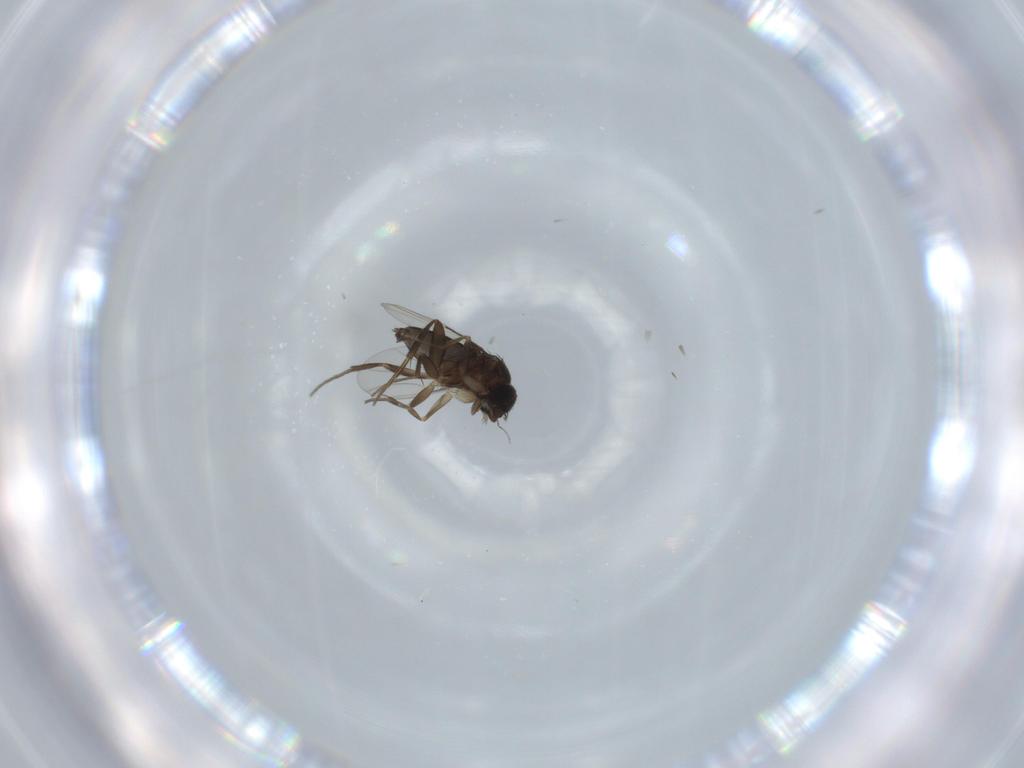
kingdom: Animalia
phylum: Arthropoda
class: Insecta
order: Diptera
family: Phoridae
